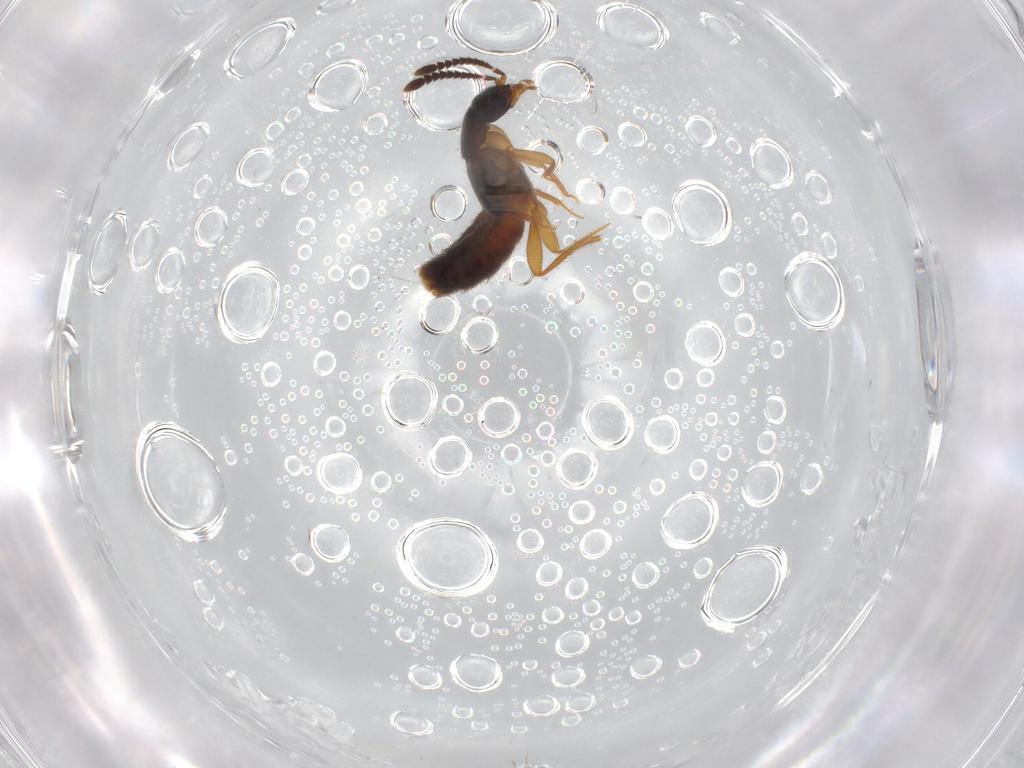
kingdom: Animalia
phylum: Arthropoda
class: Insecta
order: Coleoptera
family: Staphylinidae
